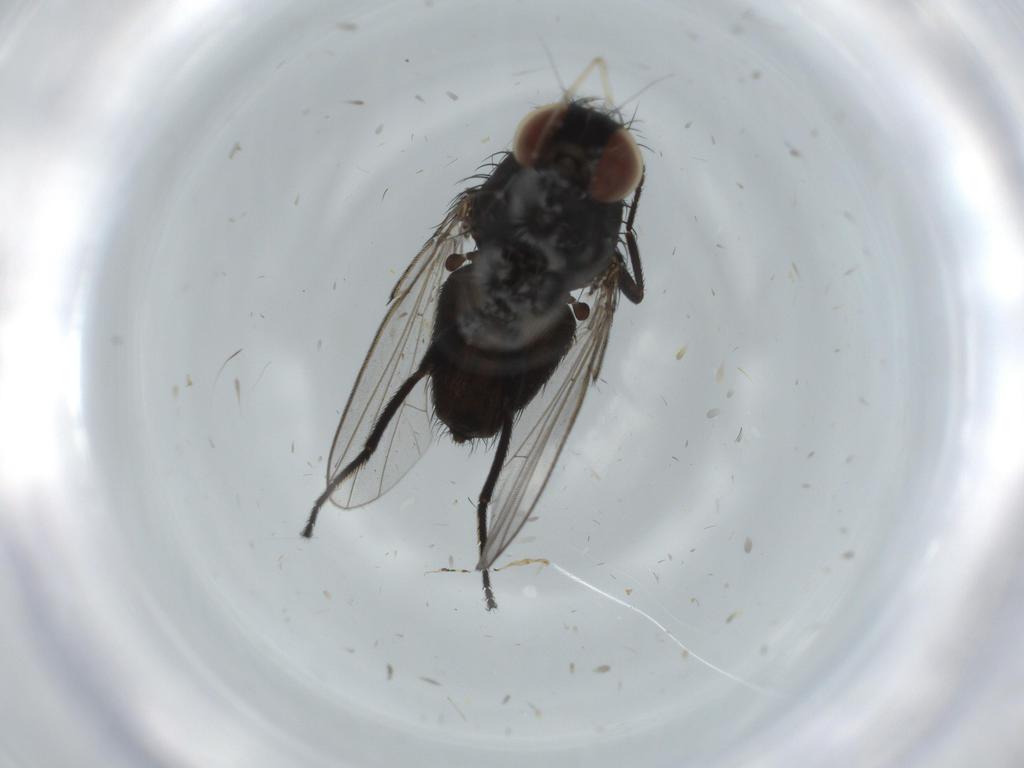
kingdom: Animalia
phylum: Arthropoda
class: Insecta
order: Diptera
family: Milichiidae
